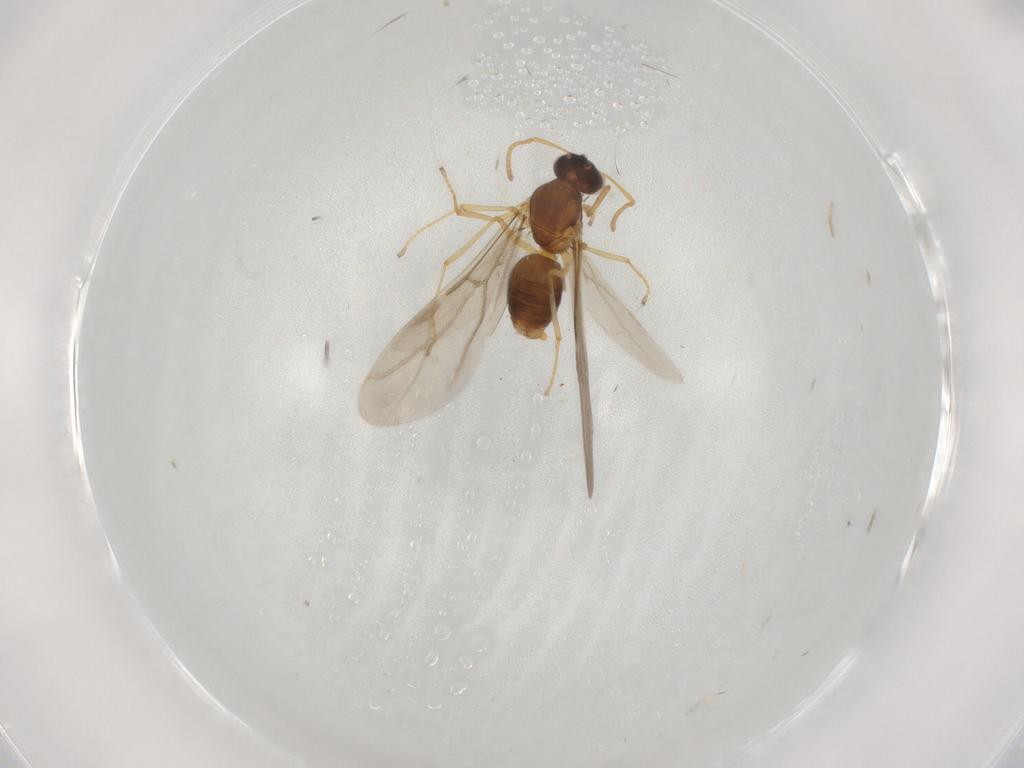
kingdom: Animalia
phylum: Arthropoda
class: Insecta
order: Hymenoptera
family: Formicidae
